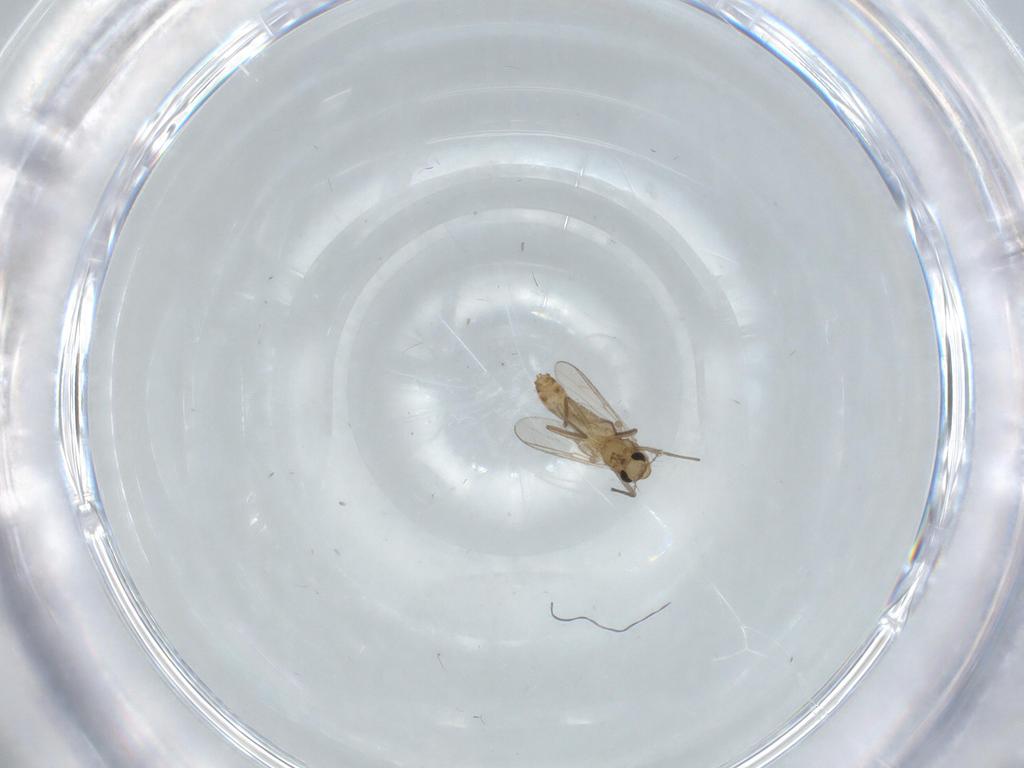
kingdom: Animalia
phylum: Arthropoda
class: Insecta
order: Diptera
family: Chironomidae
